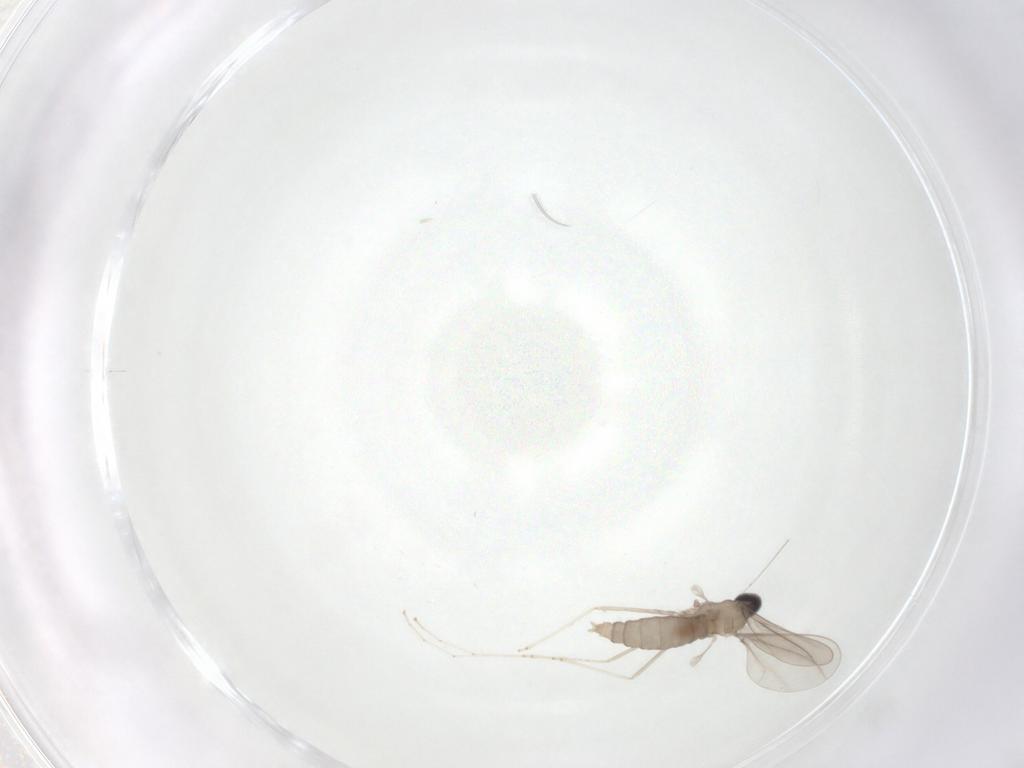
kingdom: Animalia
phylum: Arthropoda
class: Insecta
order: Diptera
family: Cecidomyiidae
